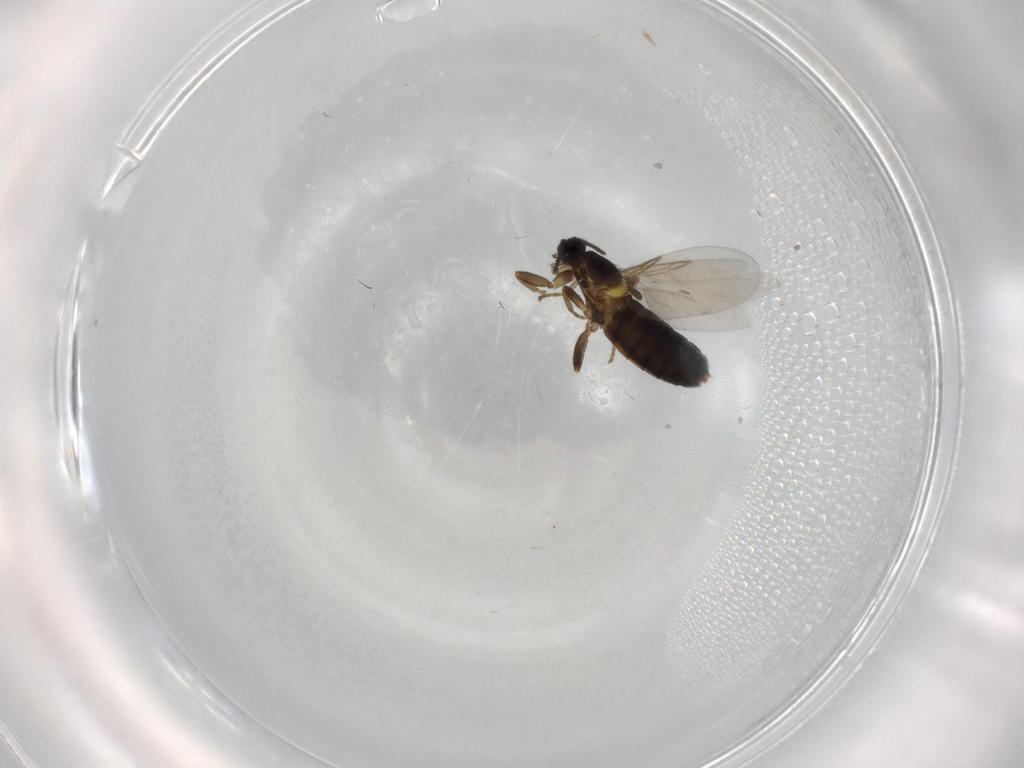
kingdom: Animalia
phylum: Arthropoda
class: Insecta
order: Diptera
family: Scatopsidae
